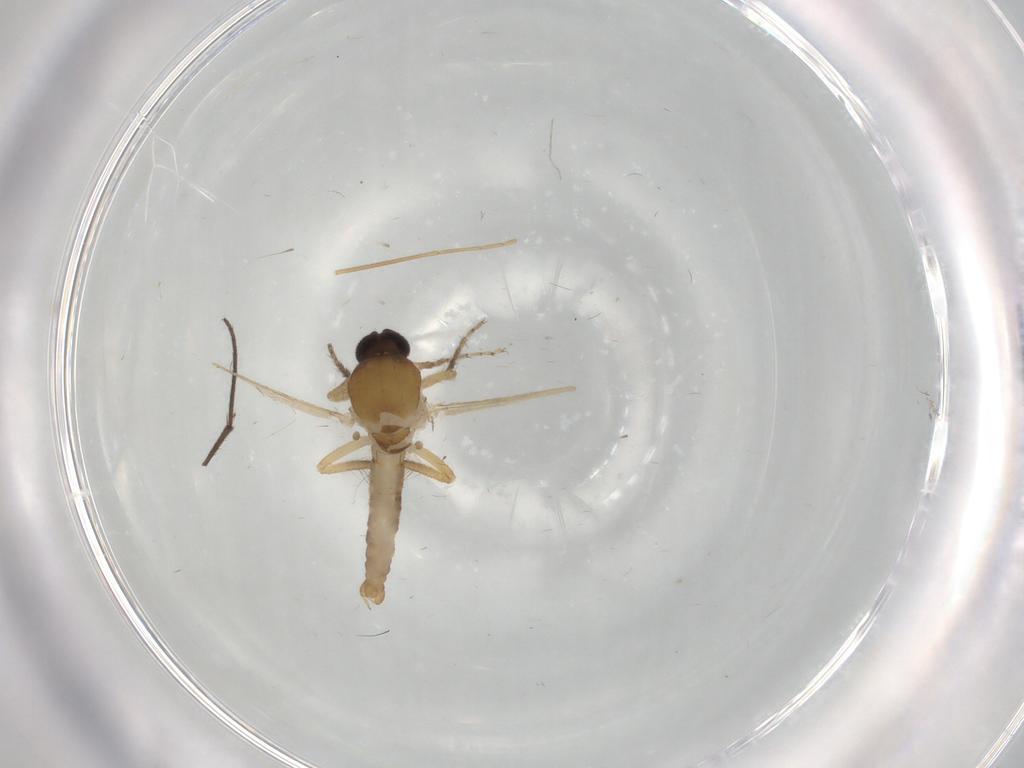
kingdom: Animalia
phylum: Arthropoda
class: Insecta
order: Diptera
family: Ceratopogonidae
